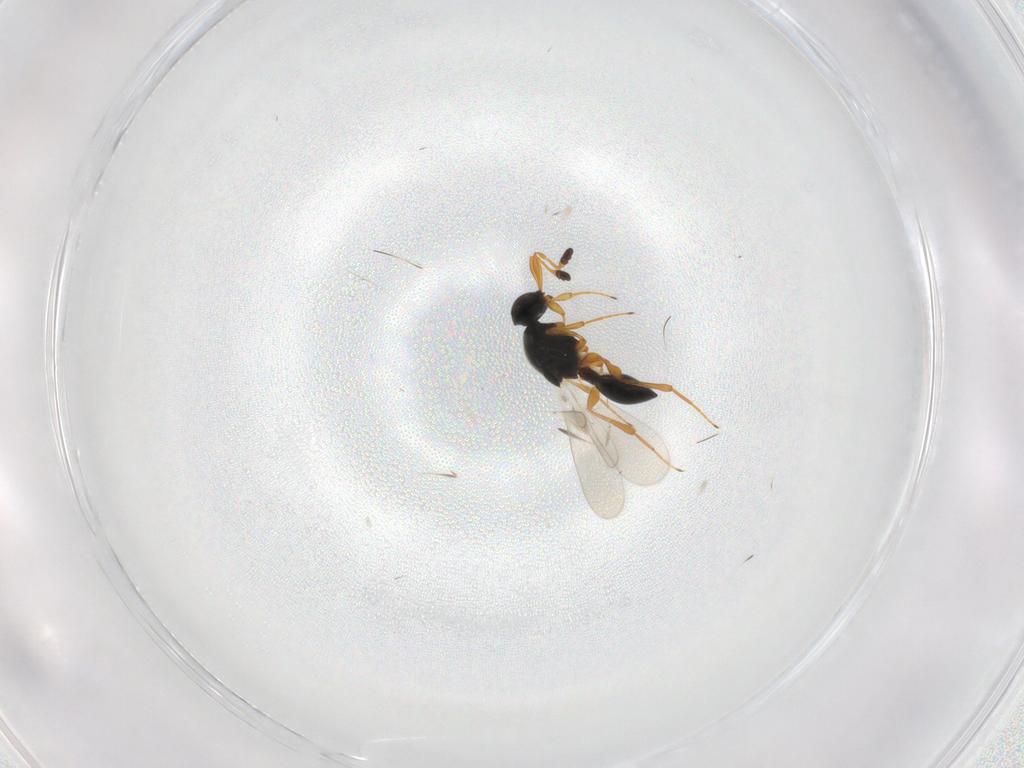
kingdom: Animalia
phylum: Arthropoda
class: Insecta
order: Hymenoptera
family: Platygastridae
